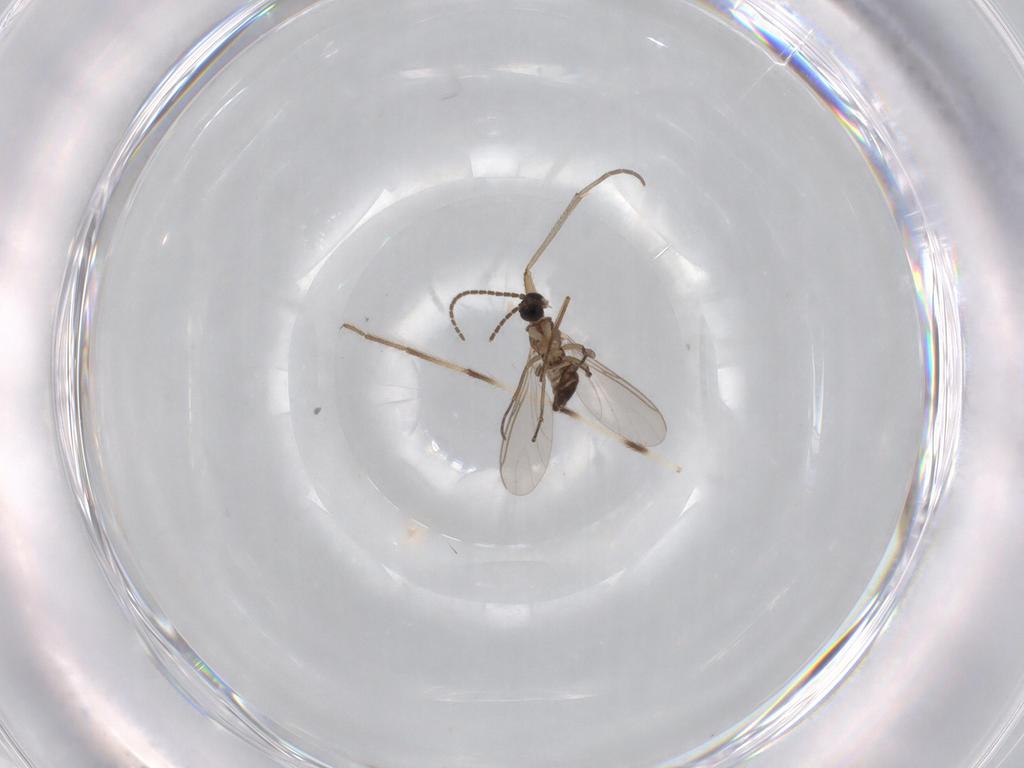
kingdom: Animalia
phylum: Arthropoda
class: Insecta
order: Diptera
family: Sciaridae
